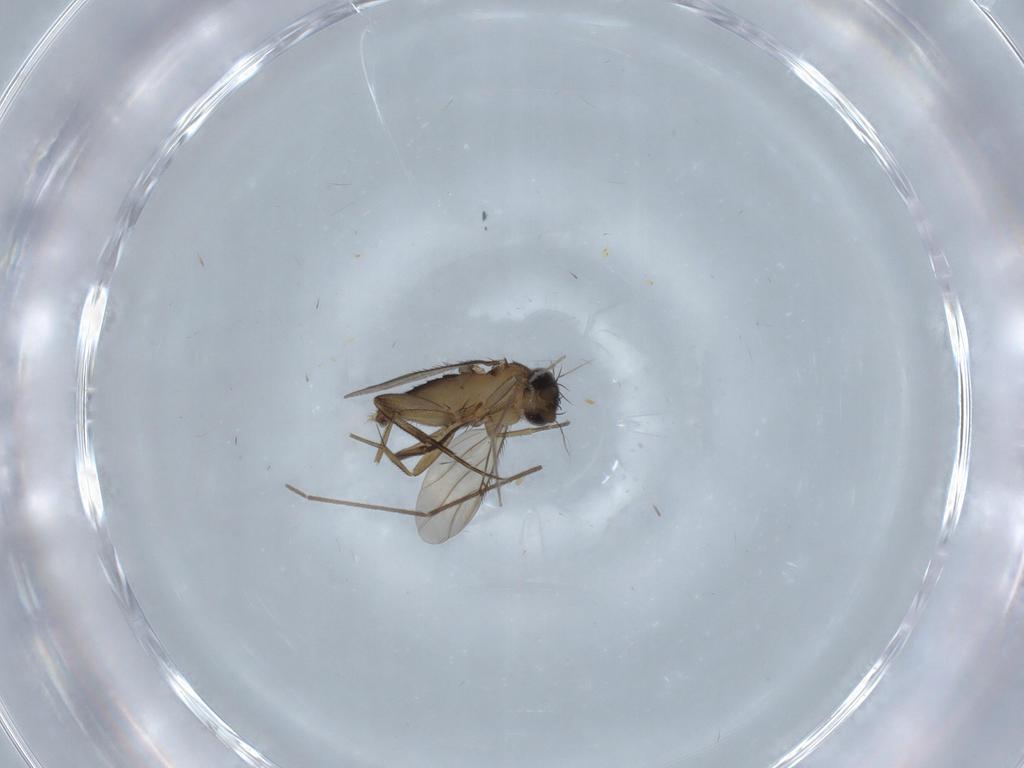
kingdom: Animalia
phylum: Arthropoda
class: Insecta
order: Diptera
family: Phoridae
